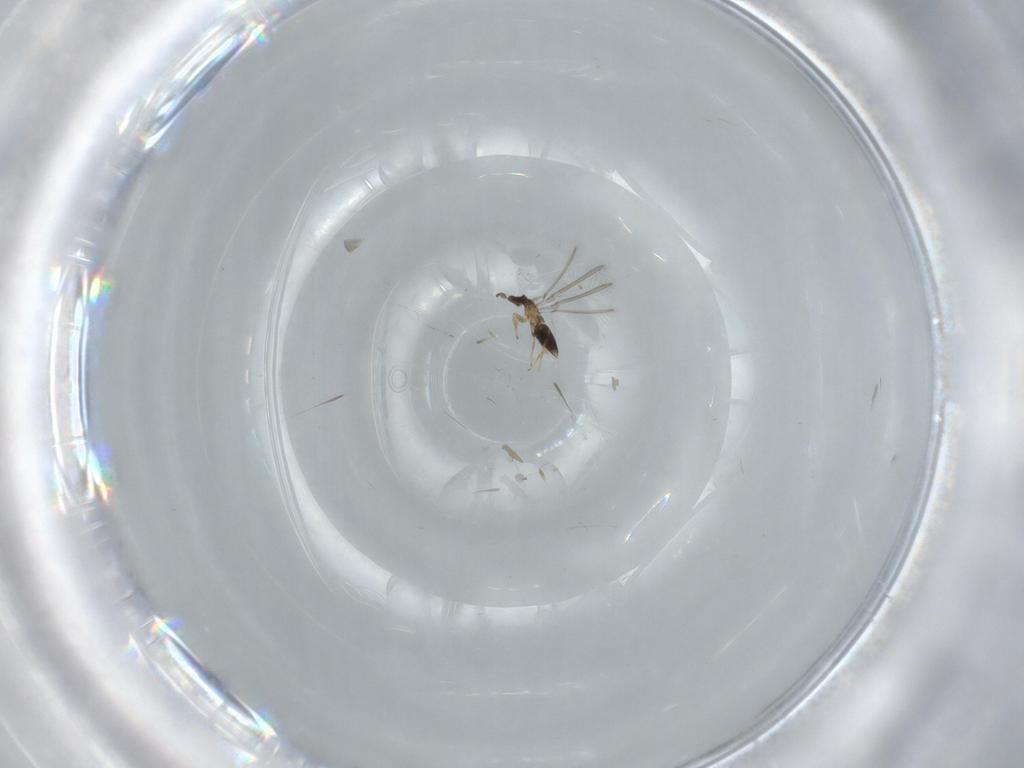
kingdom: Animalia
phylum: Arthropoda
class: Insecta
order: Hymenoptera
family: Mymaridae
